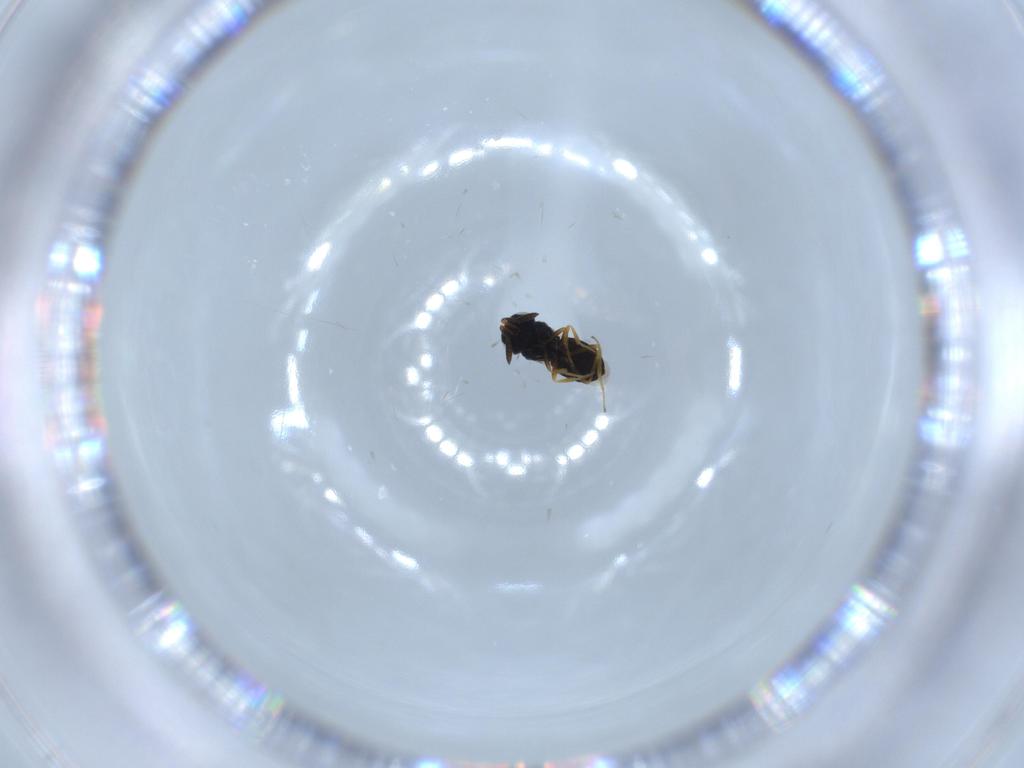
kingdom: Animalia
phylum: Arthropoda
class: Insecta
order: Hymenoptera
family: Scelionidae
